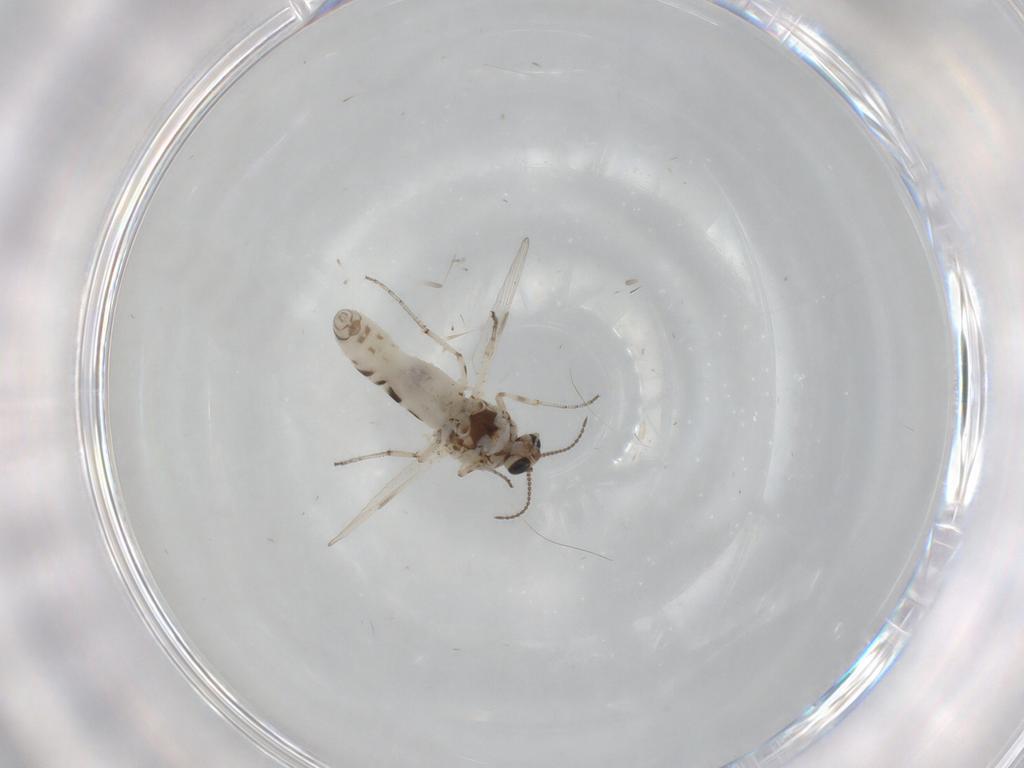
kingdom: Animalia
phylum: Arthropoda
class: Insecta
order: Diptera
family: Ceratopogonidae
